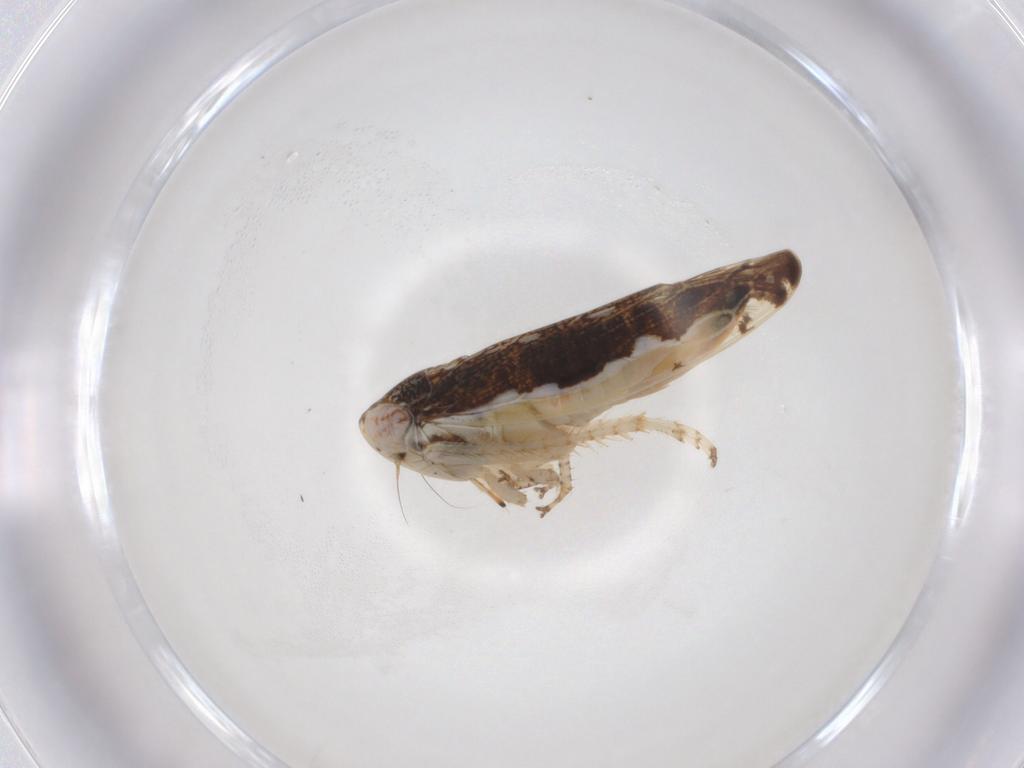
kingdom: Animalia
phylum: Arthropoda
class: Insecta
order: Hemiptera
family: Cicadellidae
